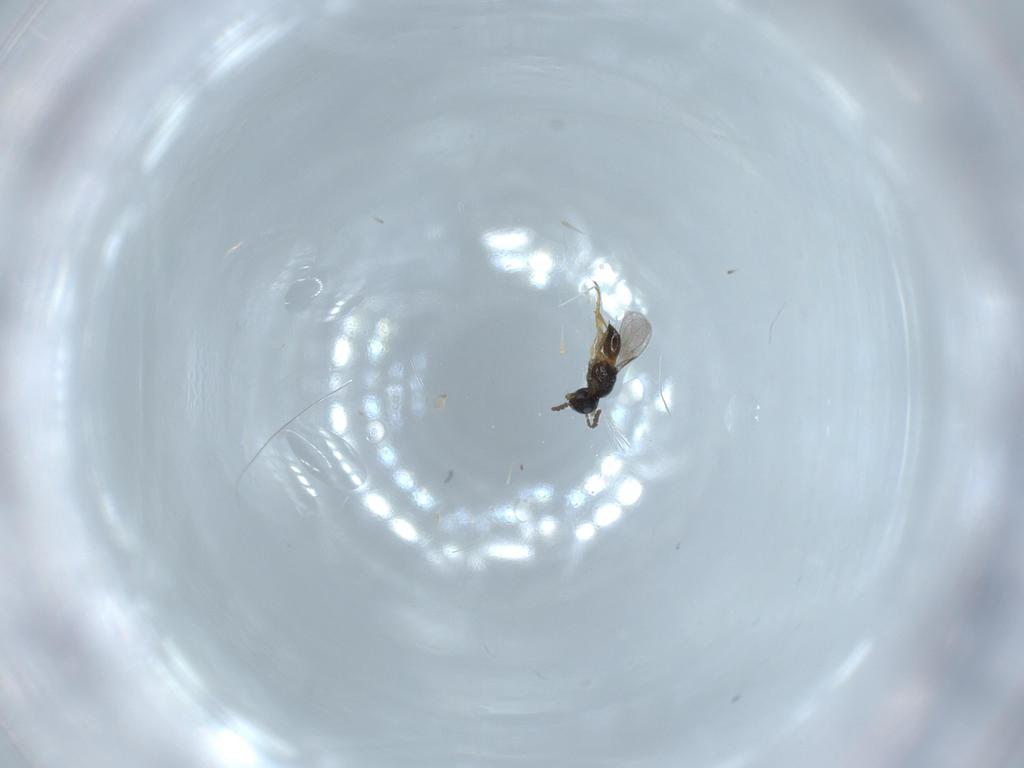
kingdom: Animalia
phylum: Arthropoda
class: Insecta
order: Hymenoptera
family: Scelionidae
